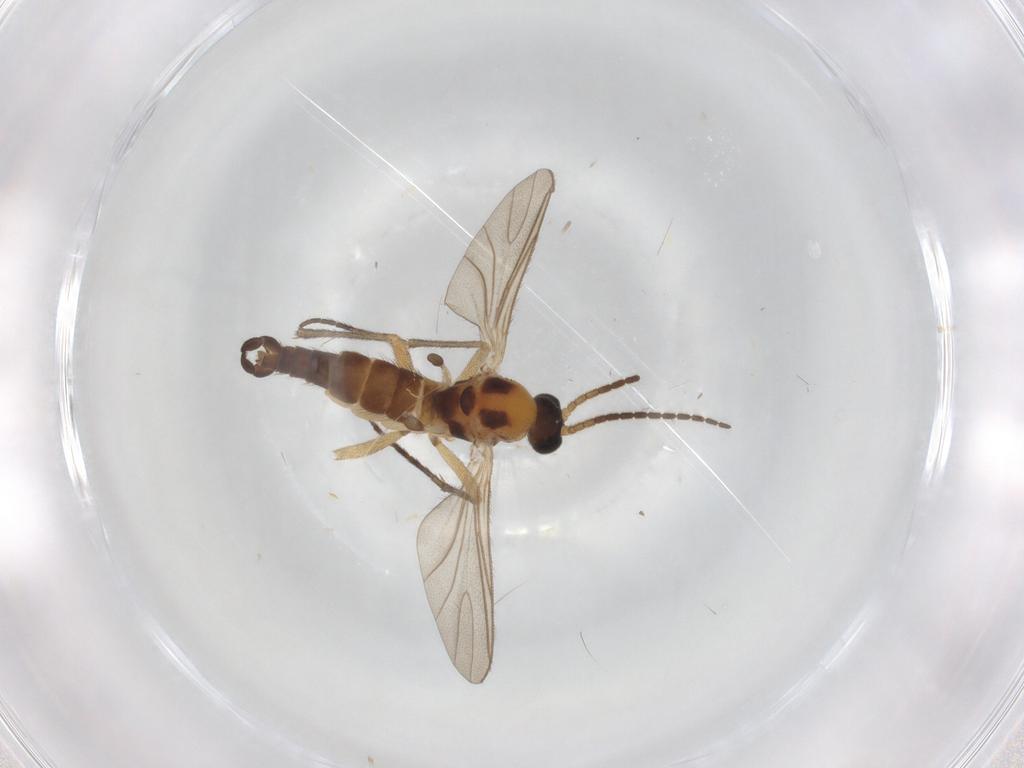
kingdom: Animalia
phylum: Arthropoda
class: Insecta
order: Diptera
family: Sciaridae
